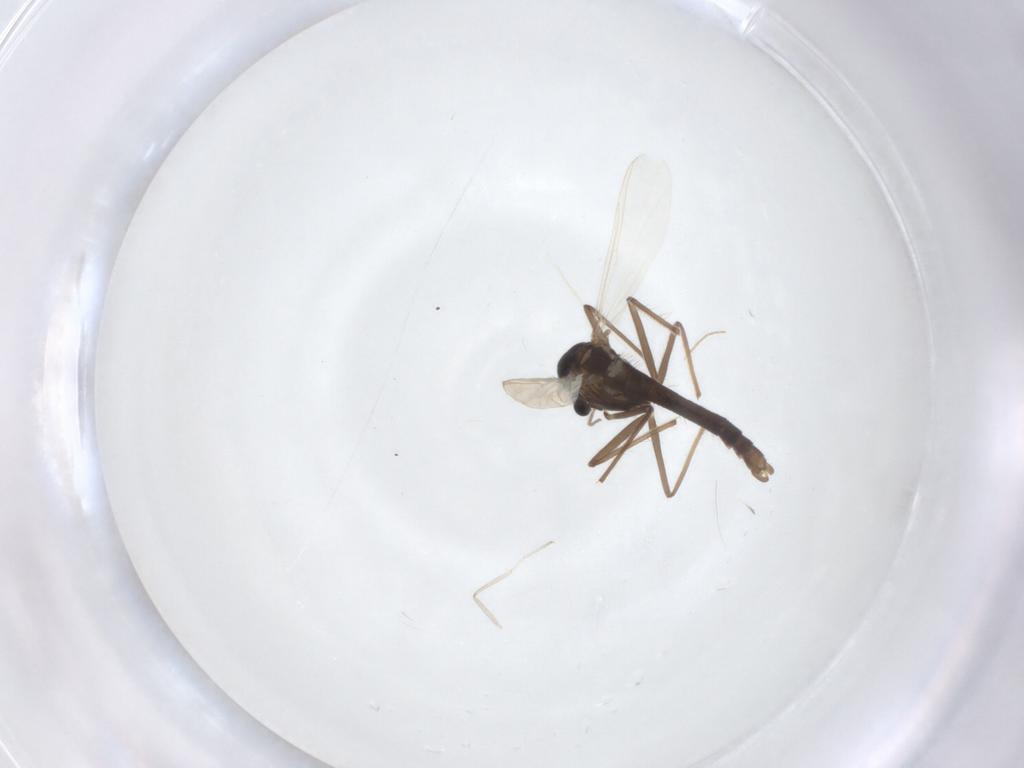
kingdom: Animalia
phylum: Arthropoda
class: Insecta
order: Diptera
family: Chironomidae
